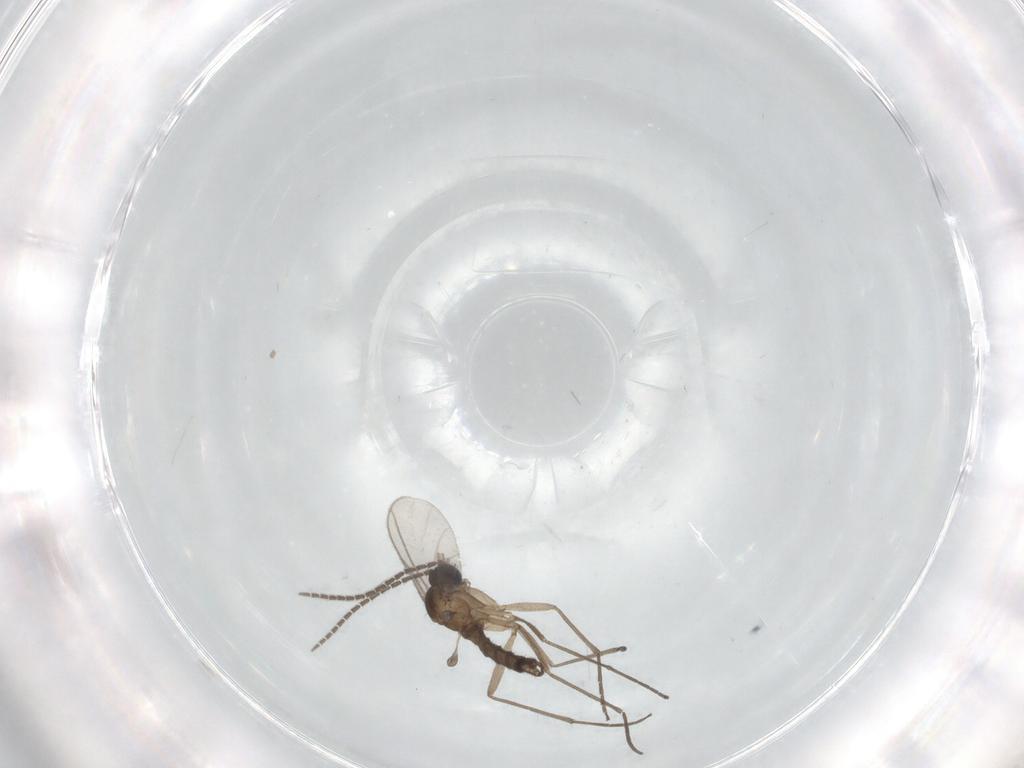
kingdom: Animalia
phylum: Arthropoda
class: Insecta
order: Diptera
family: Sciaridae
